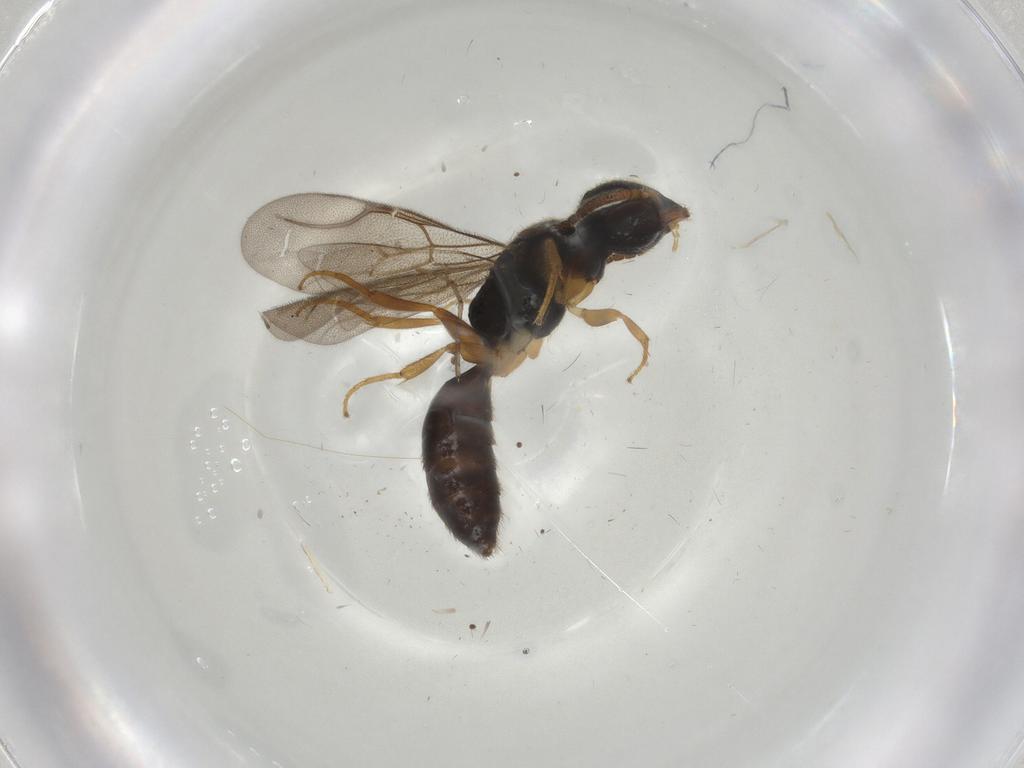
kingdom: Animalia
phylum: Arthropoda
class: Insecta
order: Hymenoptera
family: Bethylidae
